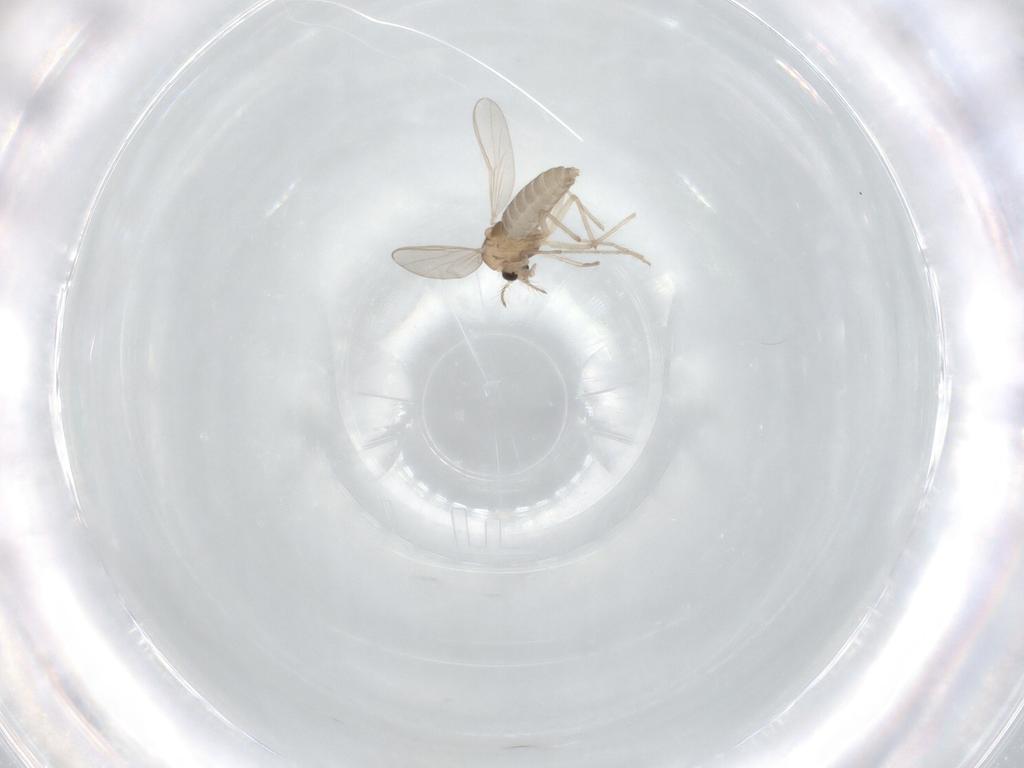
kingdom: Animalia
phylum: Arthropoda
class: Insecta
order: Diptera
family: Chironomidae
